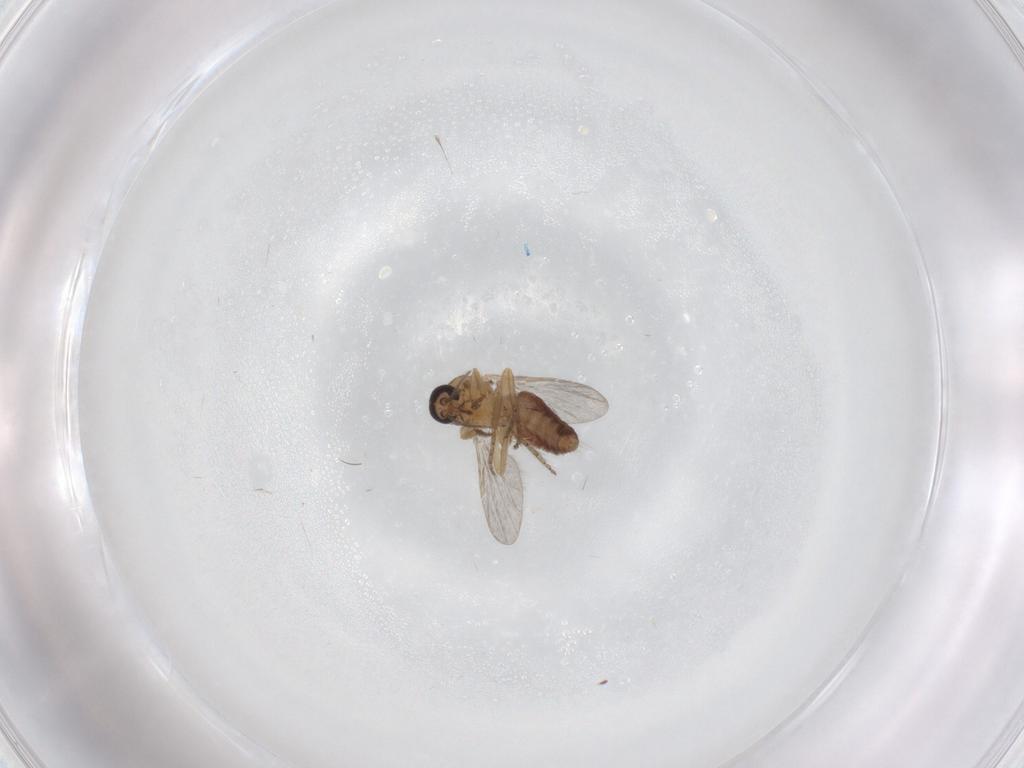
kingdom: Animalia
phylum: Arthropoda
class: Insecta
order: Diptera
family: Ceratopogonidae
